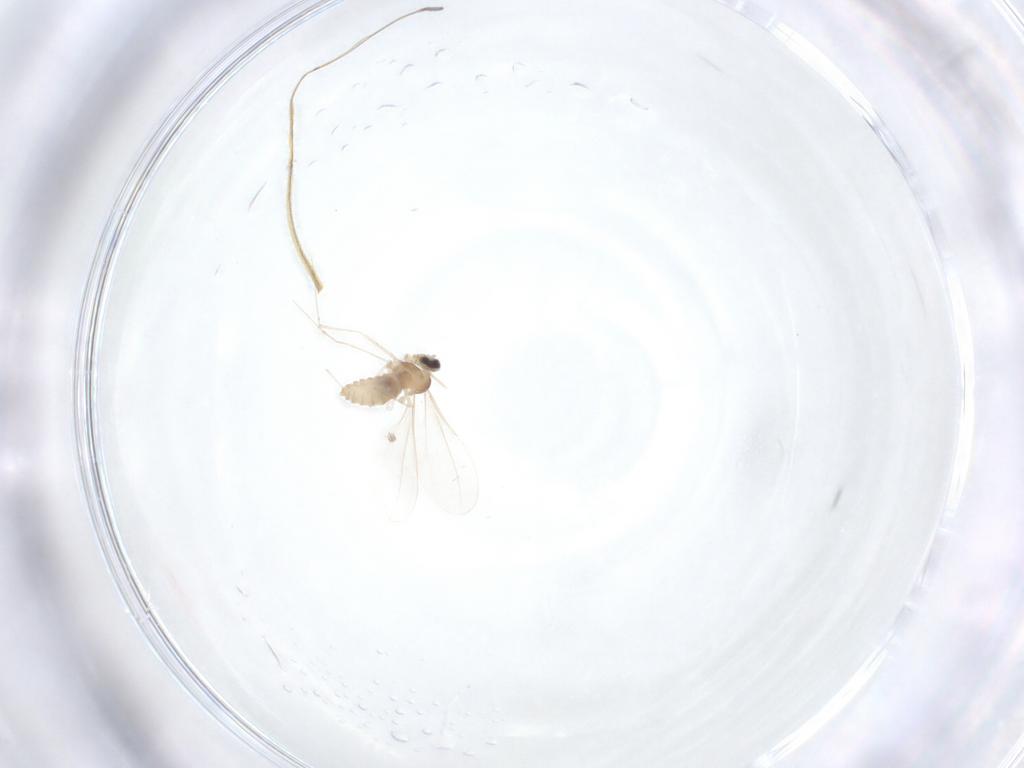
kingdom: Animalia
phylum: Arthropoda
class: Insecta
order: Diptera
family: Cecidomyiidae
